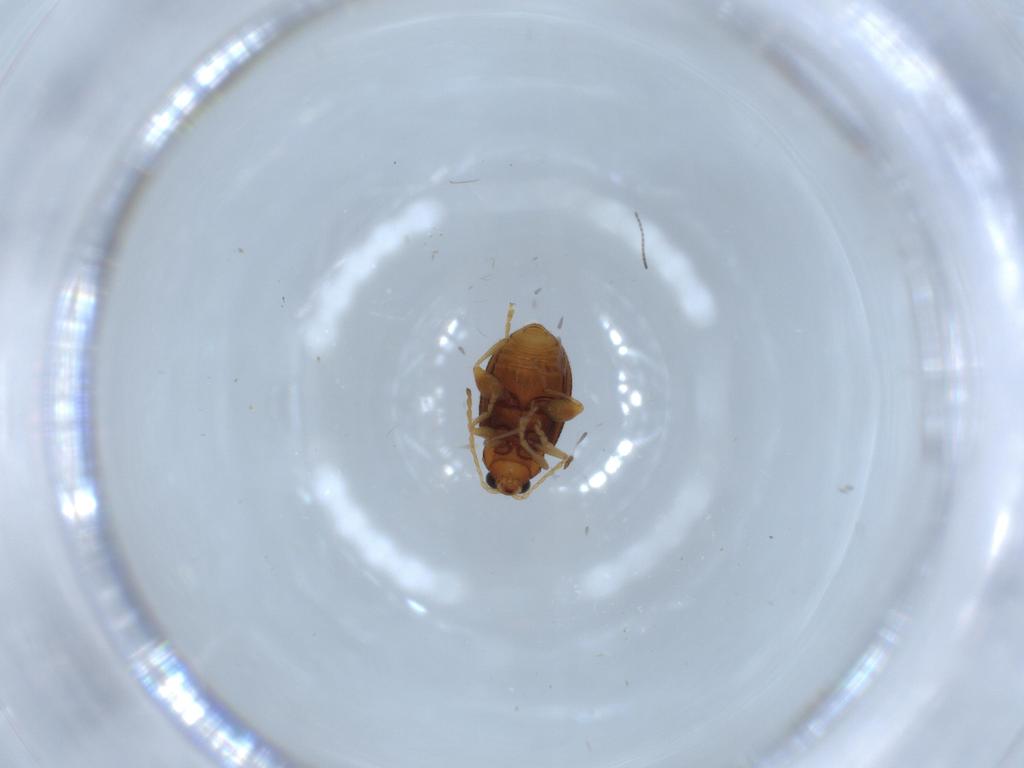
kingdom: Animalia
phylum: Arthropoda
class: Insecta
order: Coleoptera
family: Chrysomelidae
